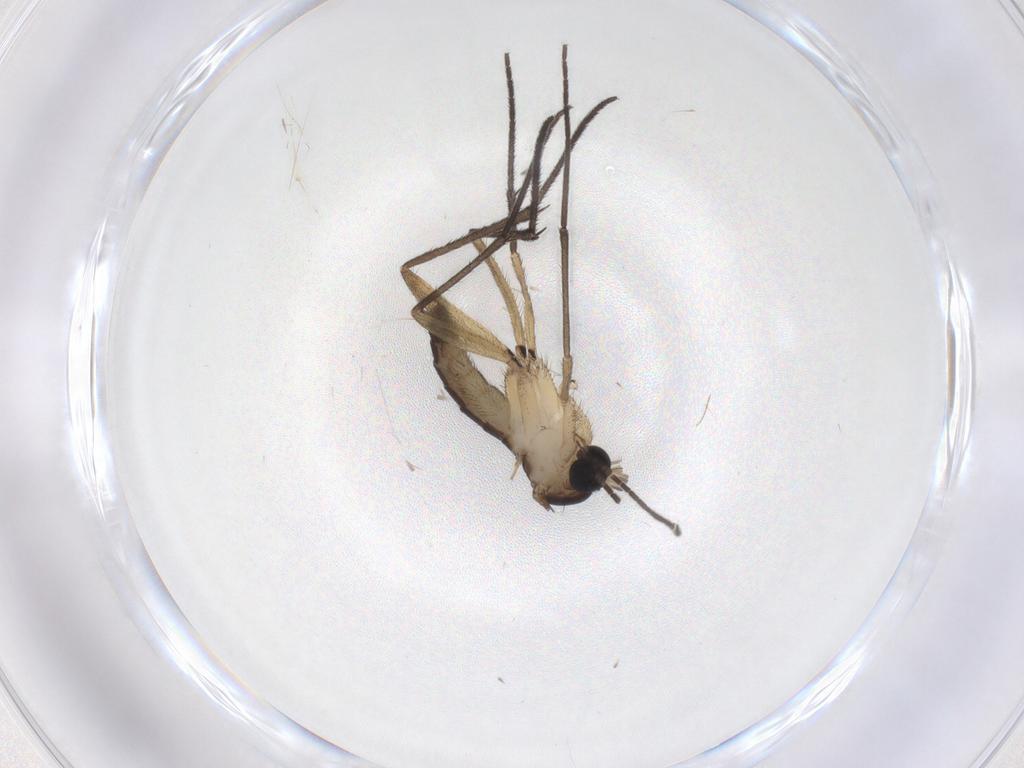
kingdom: Animalia
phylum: Arthropoda
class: Insecta
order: Diptera
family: Sciaridae
